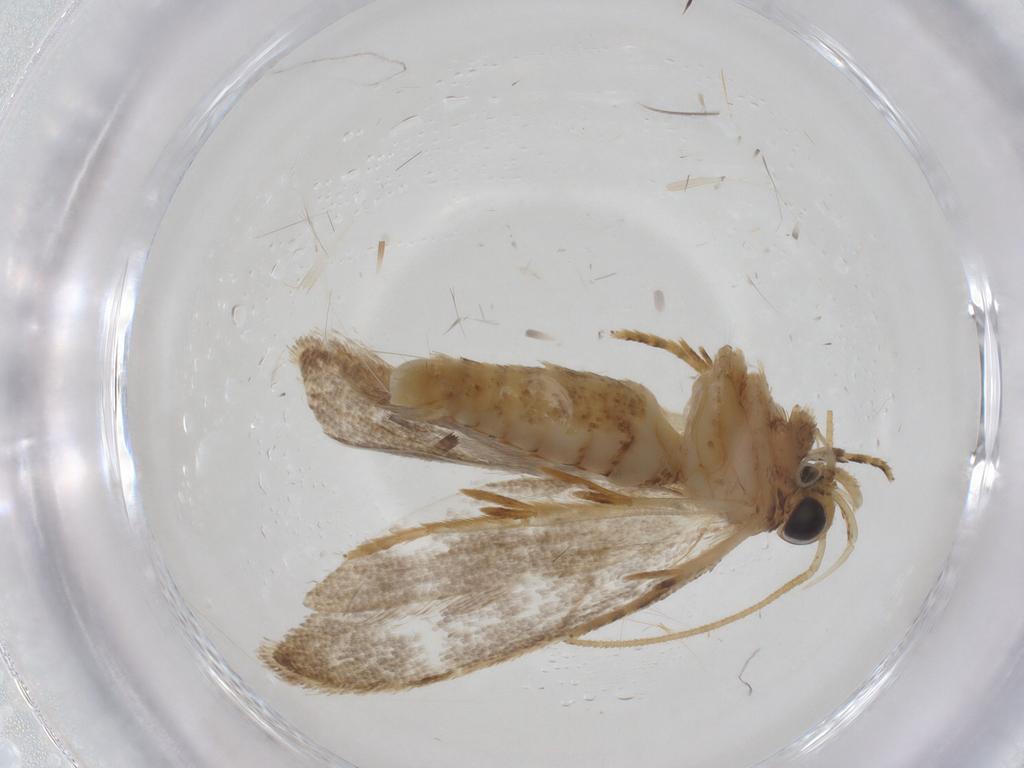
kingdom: Animalia
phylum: Arthropoda
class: Insecta
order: Lepidoptera
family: Oecophoridae
